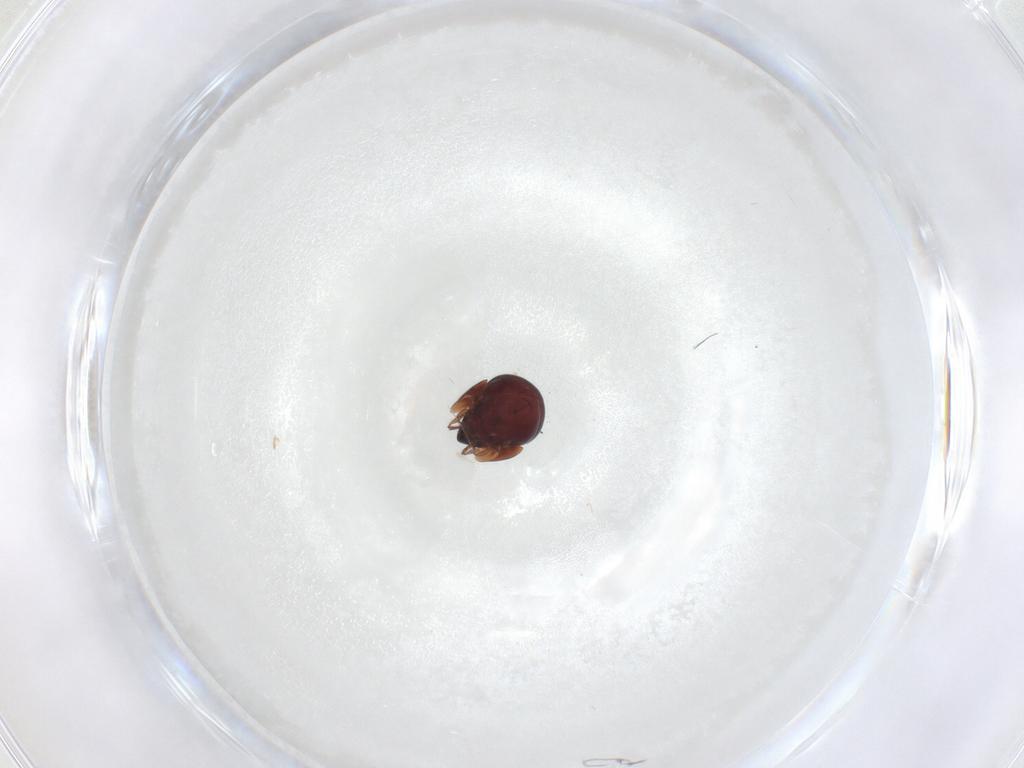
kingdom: Animalia
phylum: Arthropoda
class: Arachnida
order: Sarcoptiformes
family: Galumnidae
